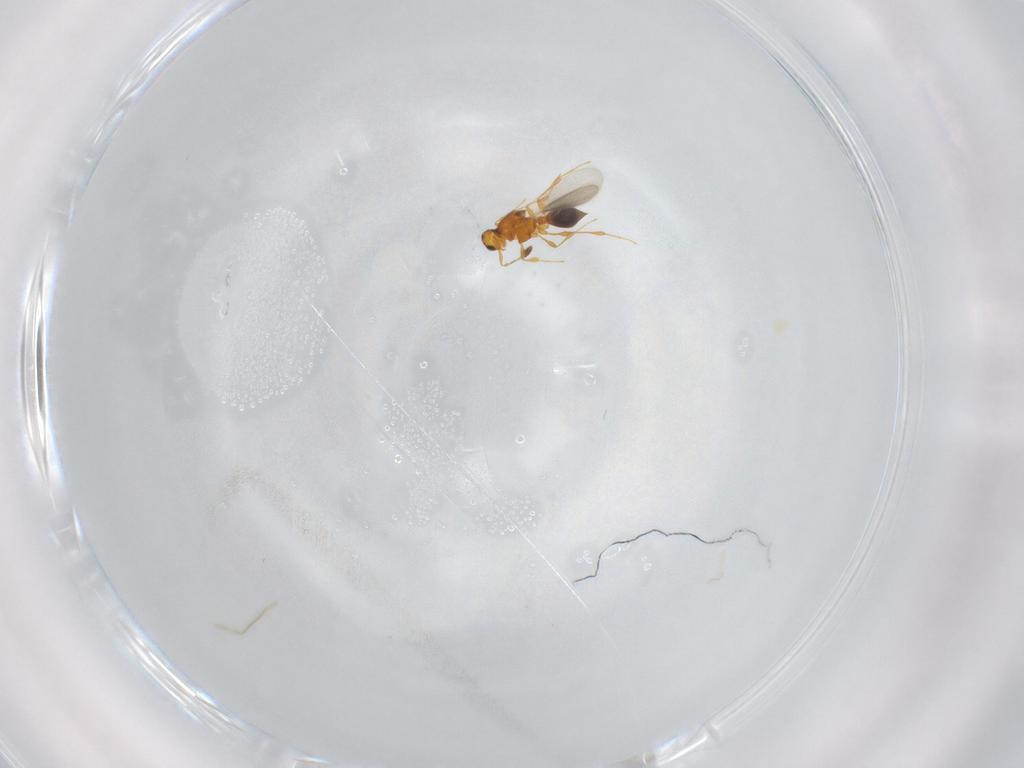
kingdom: Animalia
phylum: Arthropoda
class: Insecta
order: Hymenoptera
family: Platygastridae
